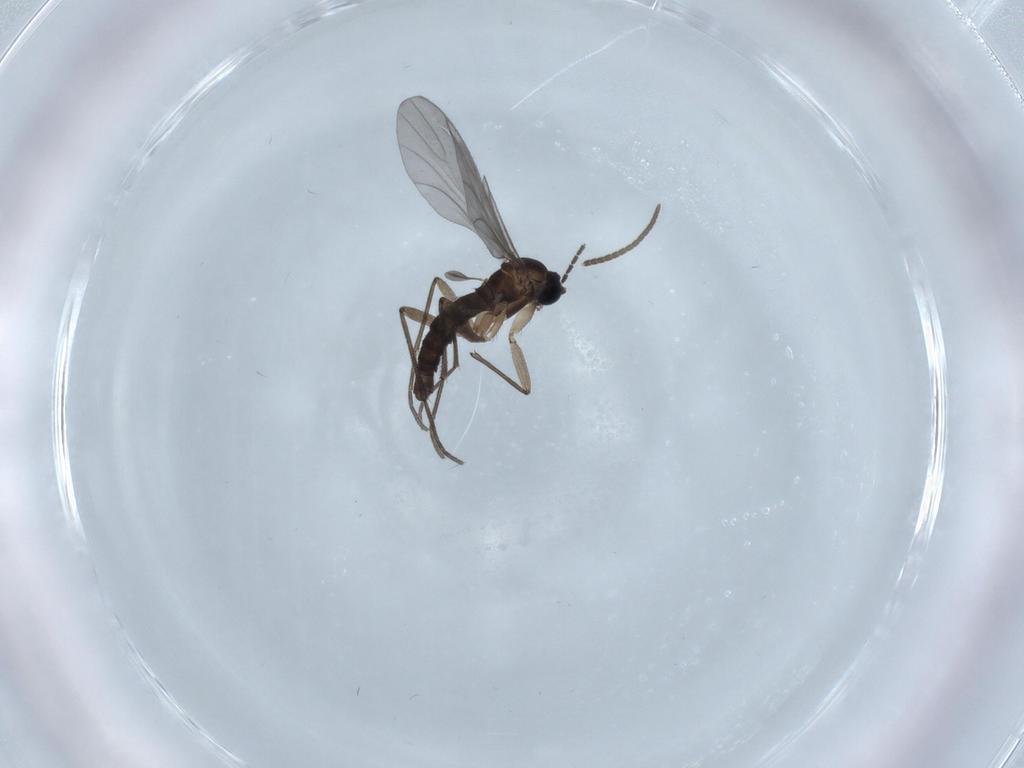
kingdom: Animalia
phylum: Arthropoda
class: Insecta
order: Diptera
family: Sciaridae
